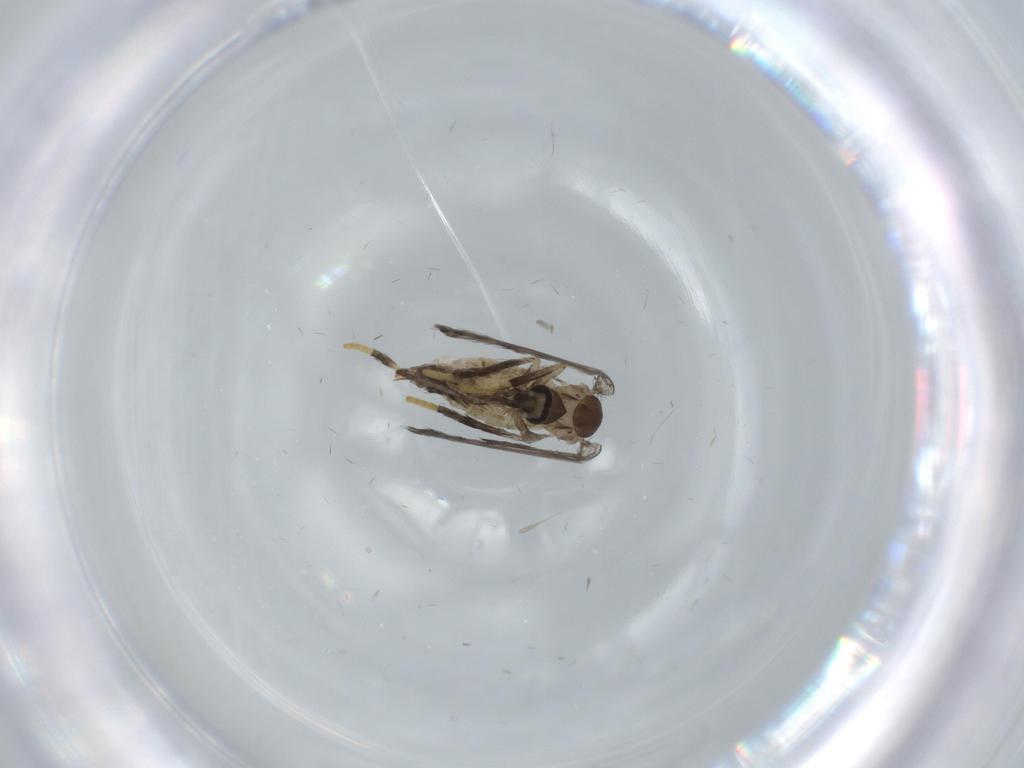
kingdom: Animalia
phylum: Arthropoda
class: Insecta
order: Diptera
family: Psychodidae
